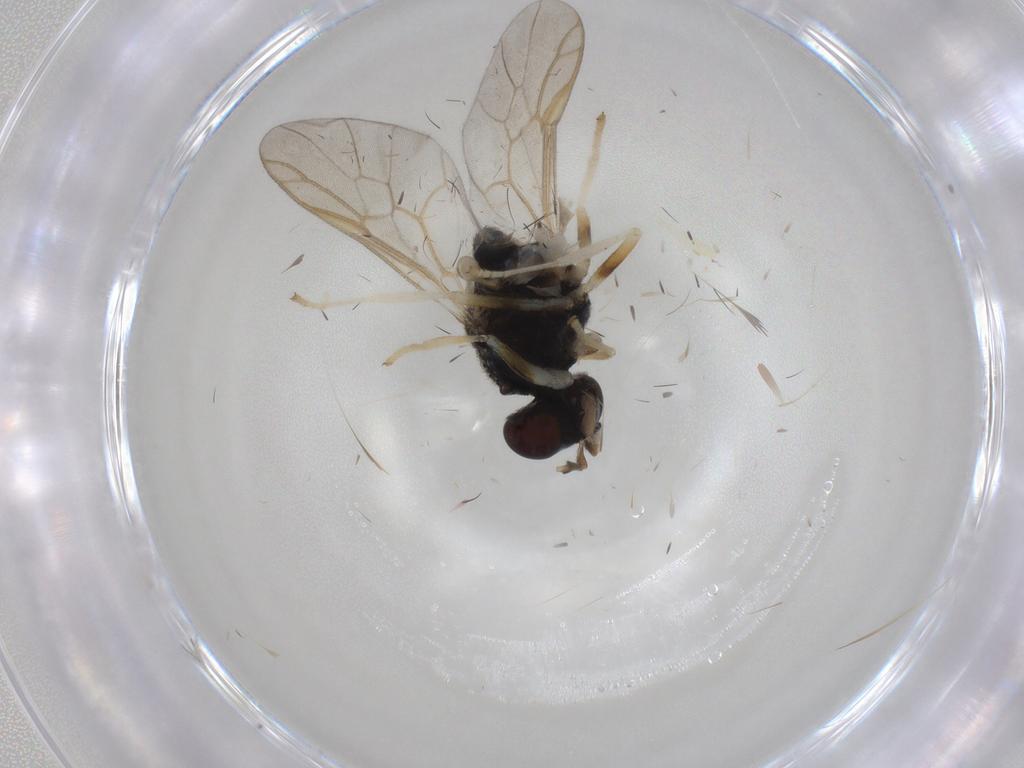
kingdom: Animalia
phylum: Arthropoda
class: Insecta
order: Diptera
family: Stratiomyidae
